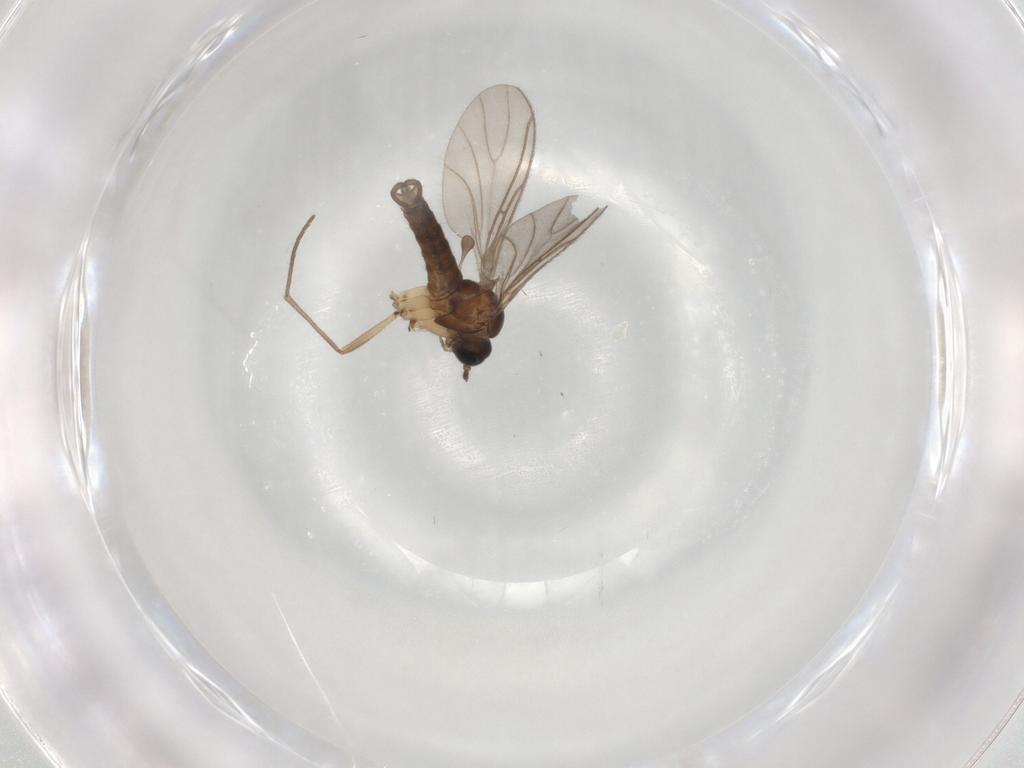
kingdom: Animalia
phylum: Arthropoda
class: Insecta
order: Diptera
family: Sciaridae
